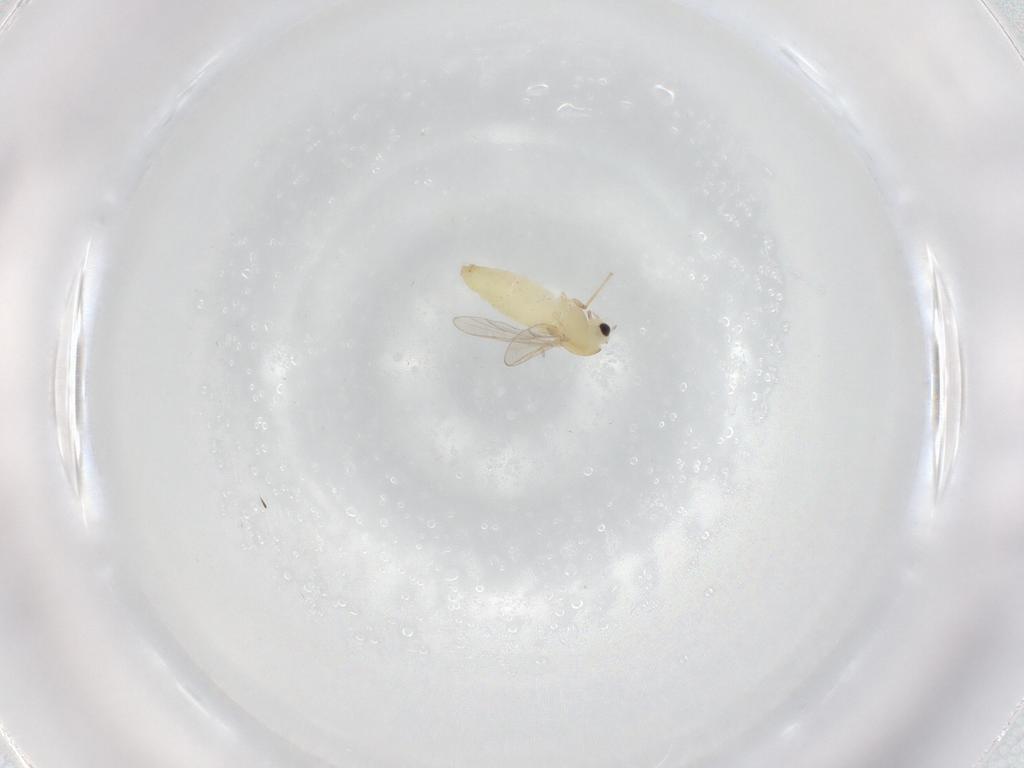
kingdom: Animalia
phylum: Arthropoda
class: Insecta
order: Diptera
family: Chironomidae
